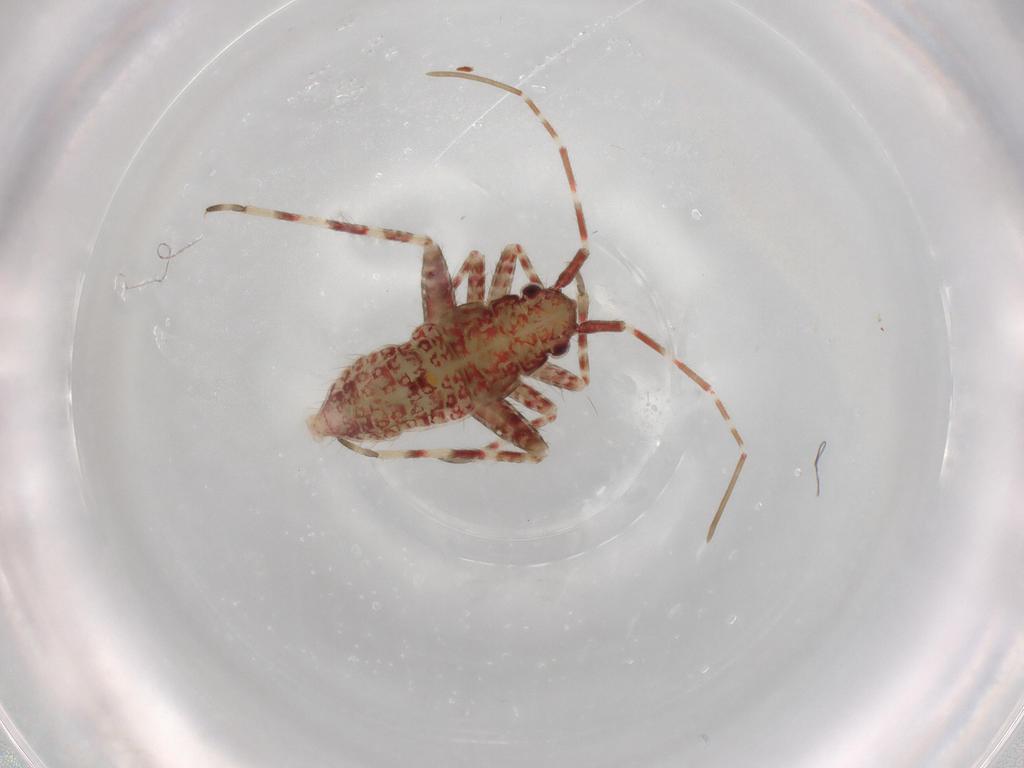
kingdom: Animalia
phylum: Arthropoda
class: Insecta
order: Hemiptera
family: Miridae
